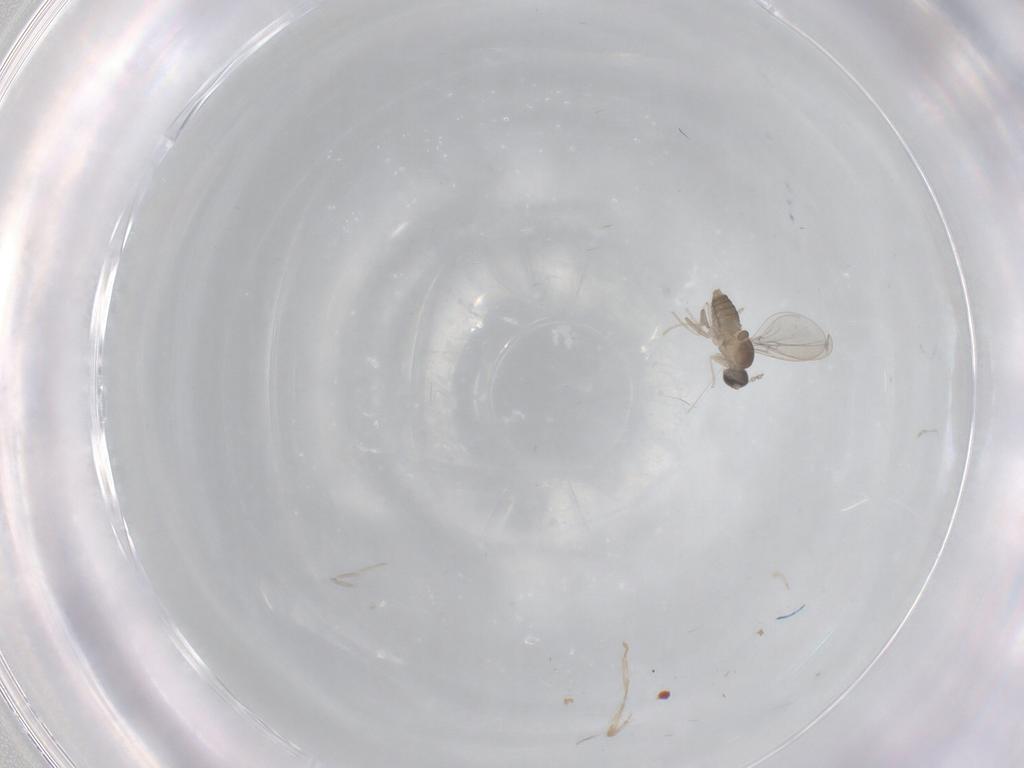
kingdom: Animalia
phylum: Arthropoda
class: Insecta
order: Diptera
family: Cecidomyiidae
